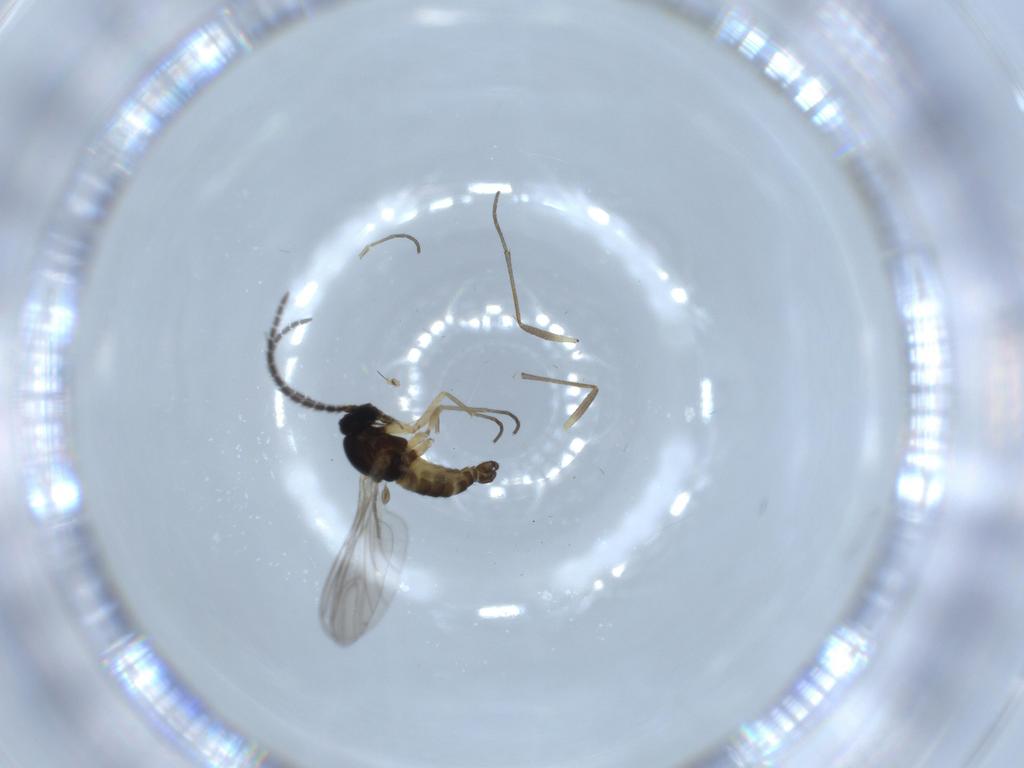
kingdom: Animalia
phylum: Arthropoda
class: Insecta
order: Diptera
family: Sciaridae
